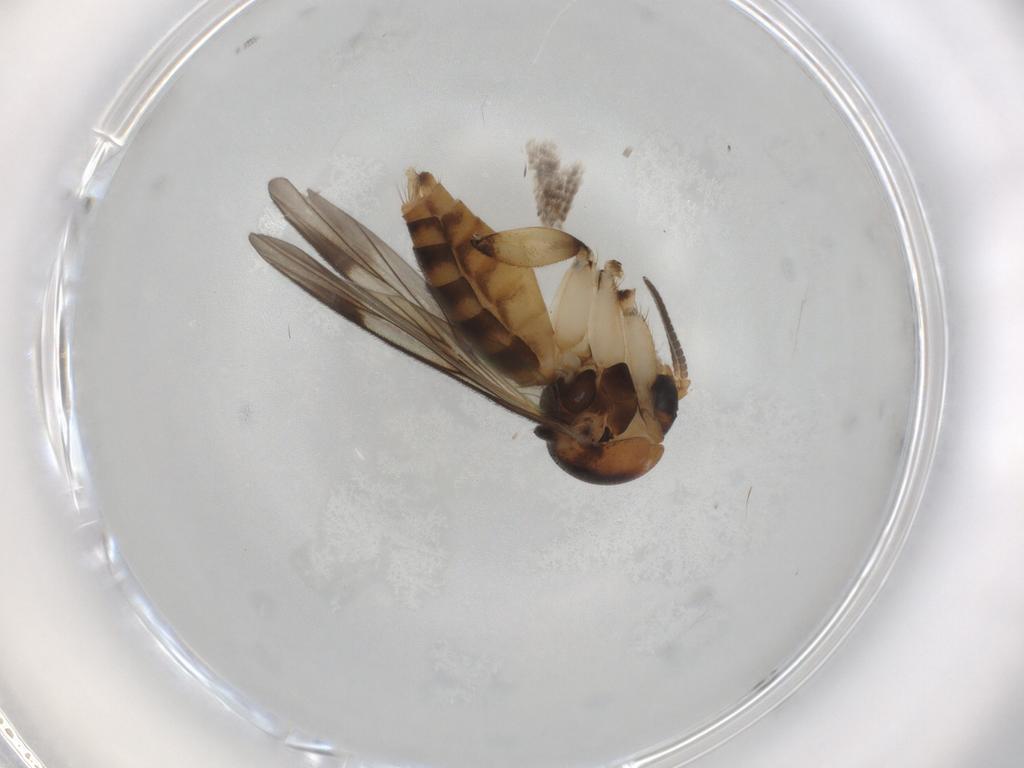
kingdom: Animalia
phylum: Arthropoda
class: Insecta
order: Diptera
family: Mycetophilidae
